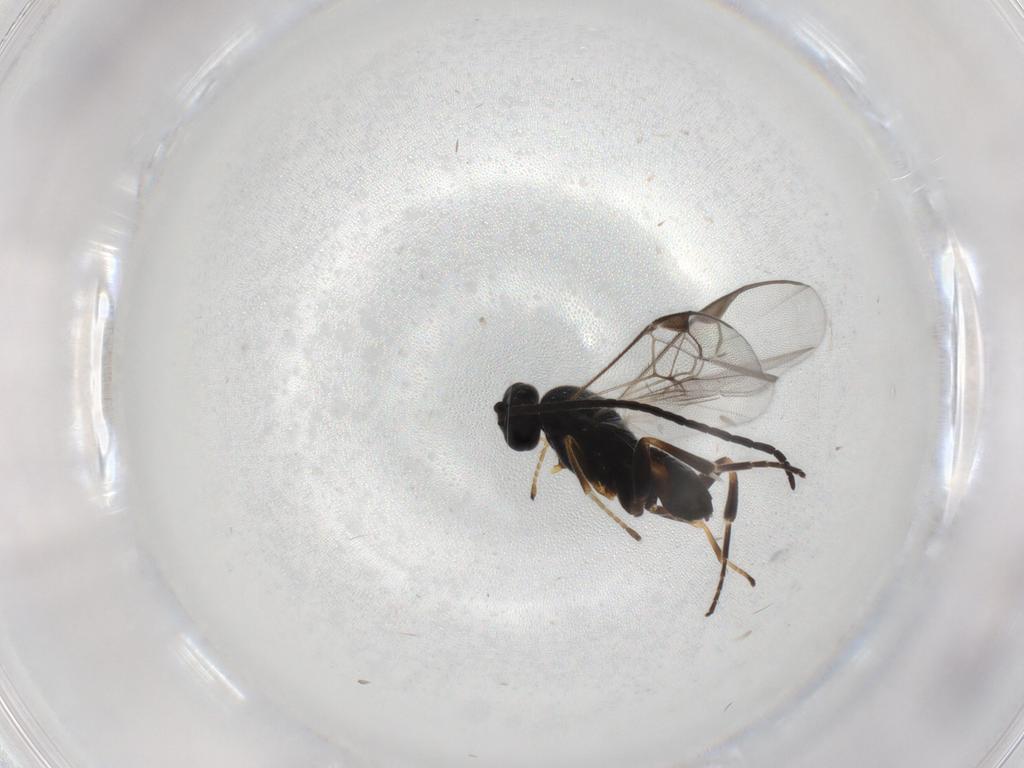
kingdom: Animalia
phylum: Arthropoda
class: Insecta
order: Hymenoptera
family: Braconidae
